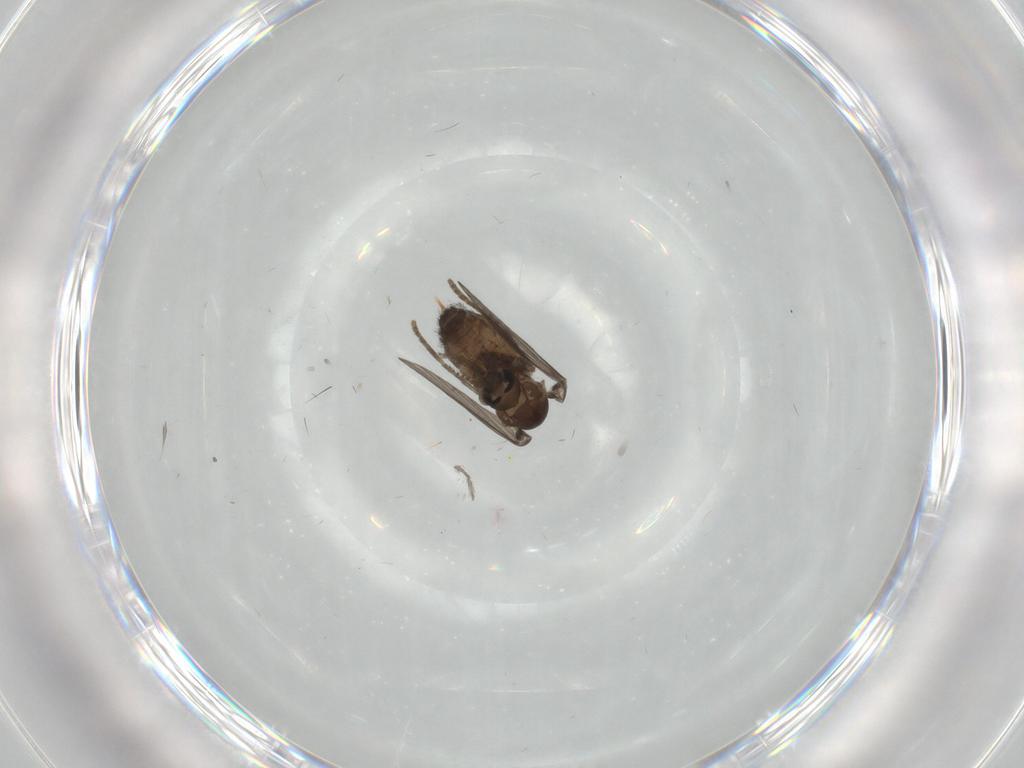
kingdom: Animalia
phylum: Arthropoda
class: Insecta
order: Diptera
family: Psychodidae
